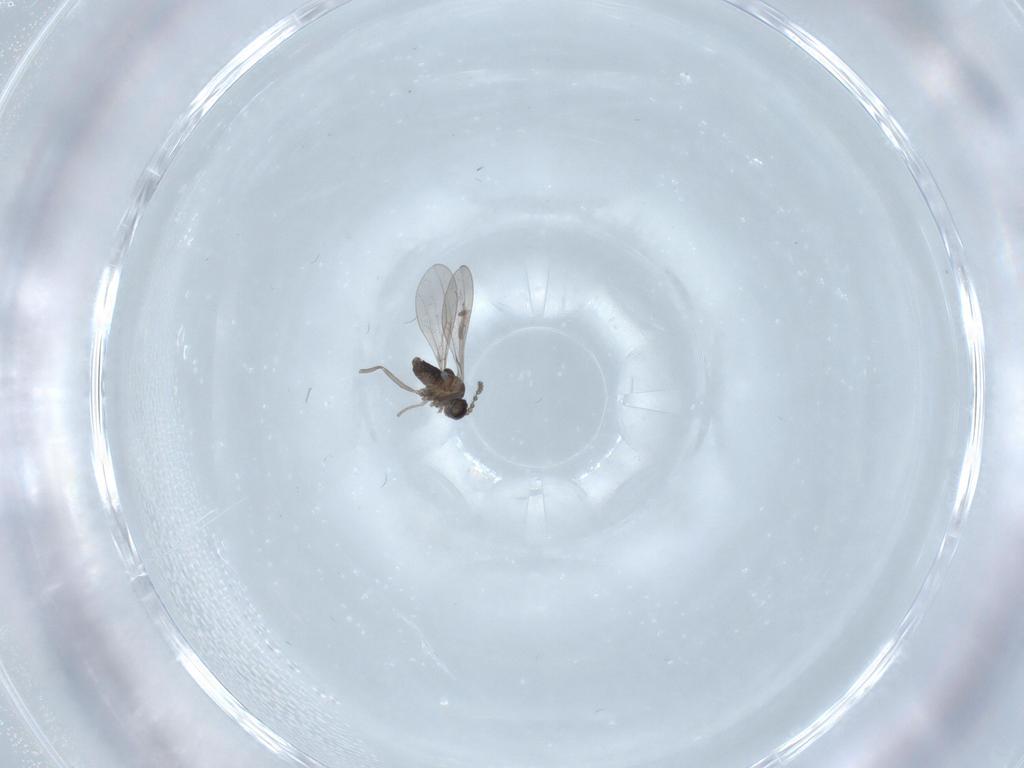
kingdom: Animalia
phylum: Arthropoda
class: Insecta
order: Diptera
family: Cecidomyiidae
